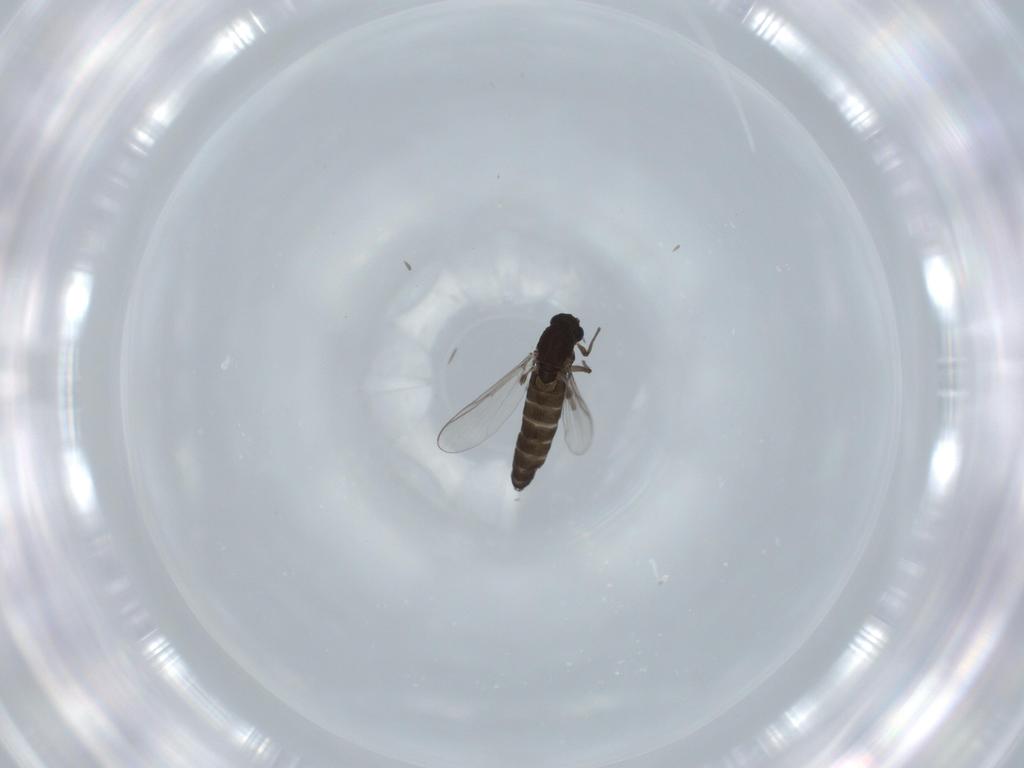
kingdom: Animalia
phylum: Arthropoda
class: Insecta
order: Diptera
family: Chironomidae
